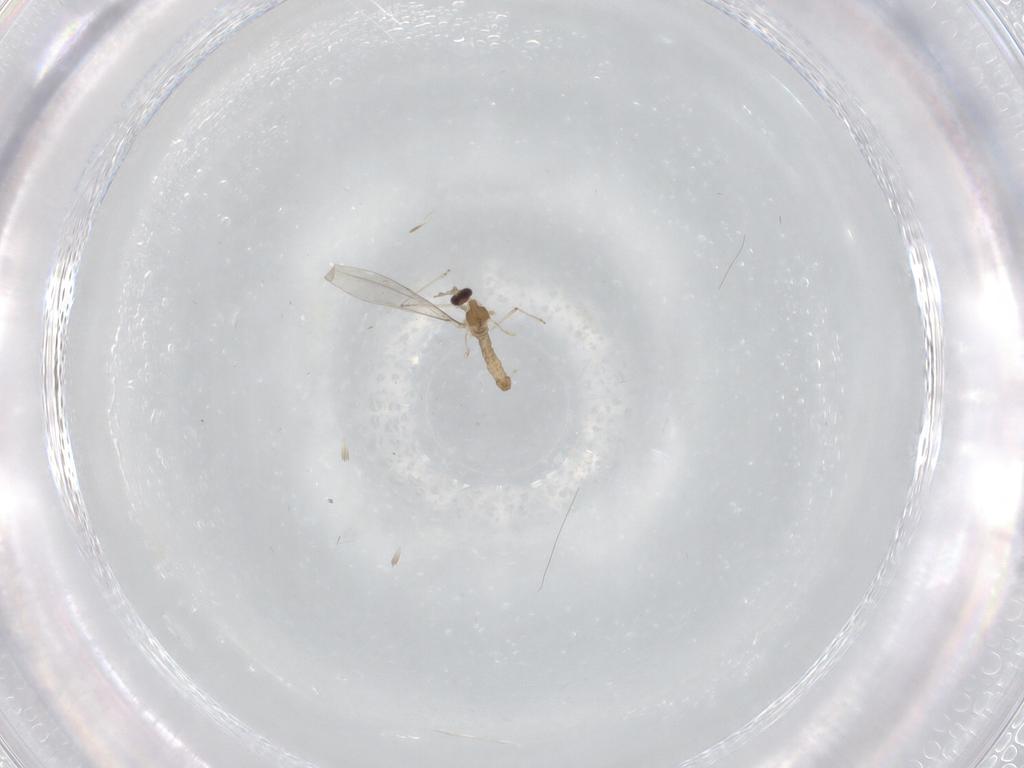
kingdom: Animalia
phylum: Arthropoda
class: Insecta
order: Diptera
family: Cecidomyiidae
